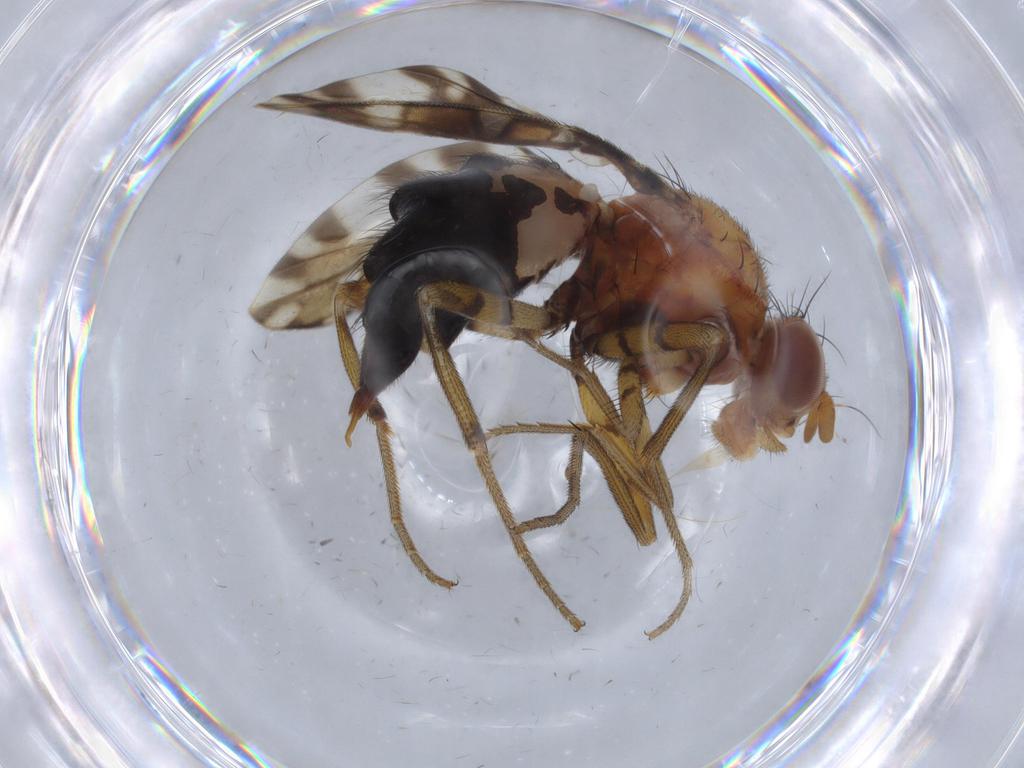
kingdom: Animalia
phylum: Arthropoda
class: Insecta
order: Diptera
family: Ulidiidae
